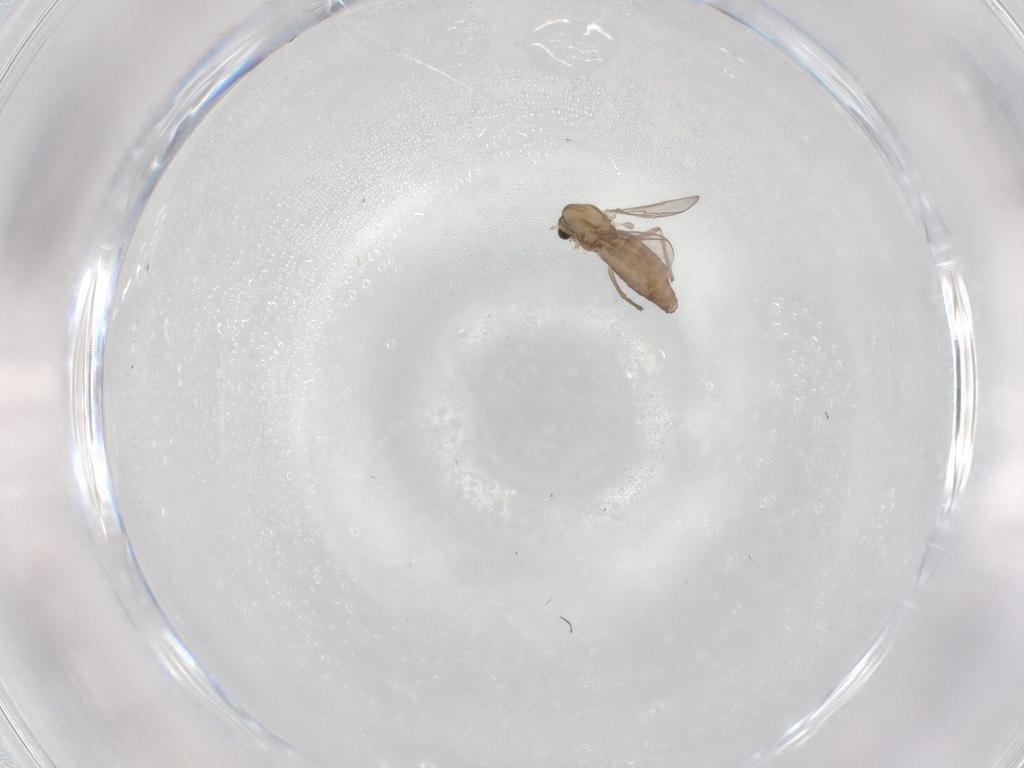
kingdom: Animalia
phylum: Arthropoda
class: Insecta
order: Diptera
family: Chironomidae
